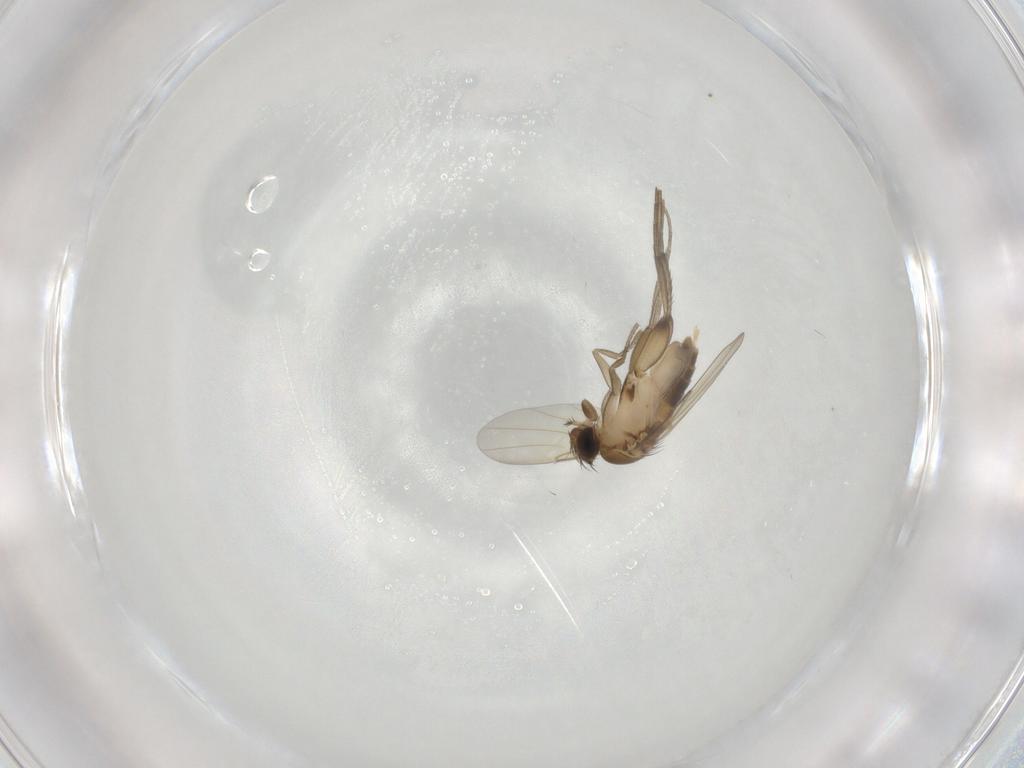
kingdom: Animalia
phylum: Arthropoda
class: Insecta
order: Diptera
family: Phoridae
